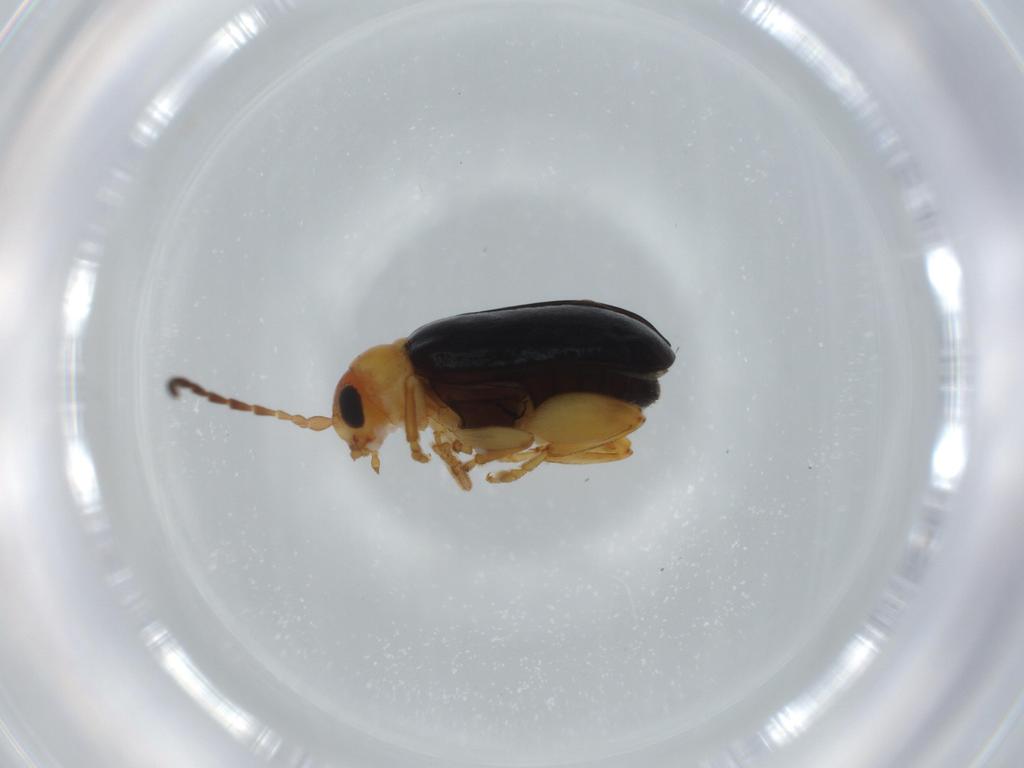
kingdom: Animalia
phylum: Arthropoda
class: Insecta
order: Coleoptera
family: Chrysomelidae
